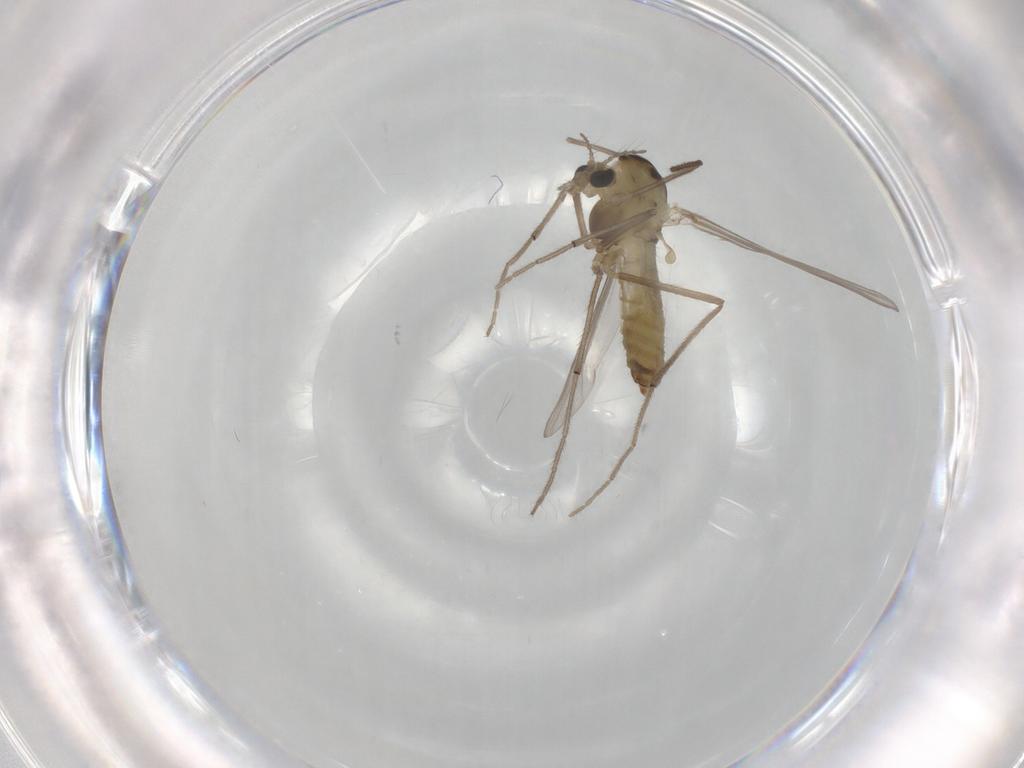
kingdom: Animalia
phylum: Arthropoda
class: Insecta
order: Diptera
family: Chironomidae
